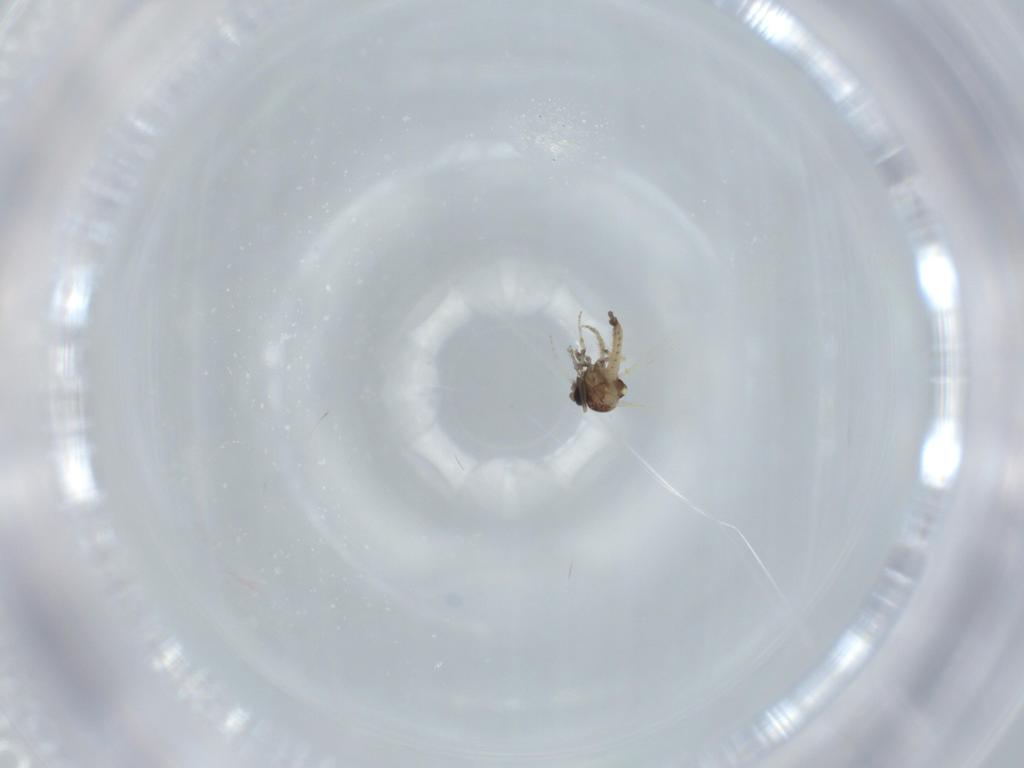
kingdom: Animalia
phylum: Arthropoda
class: Insecta
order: Diptera
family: Ceratopogonidae
